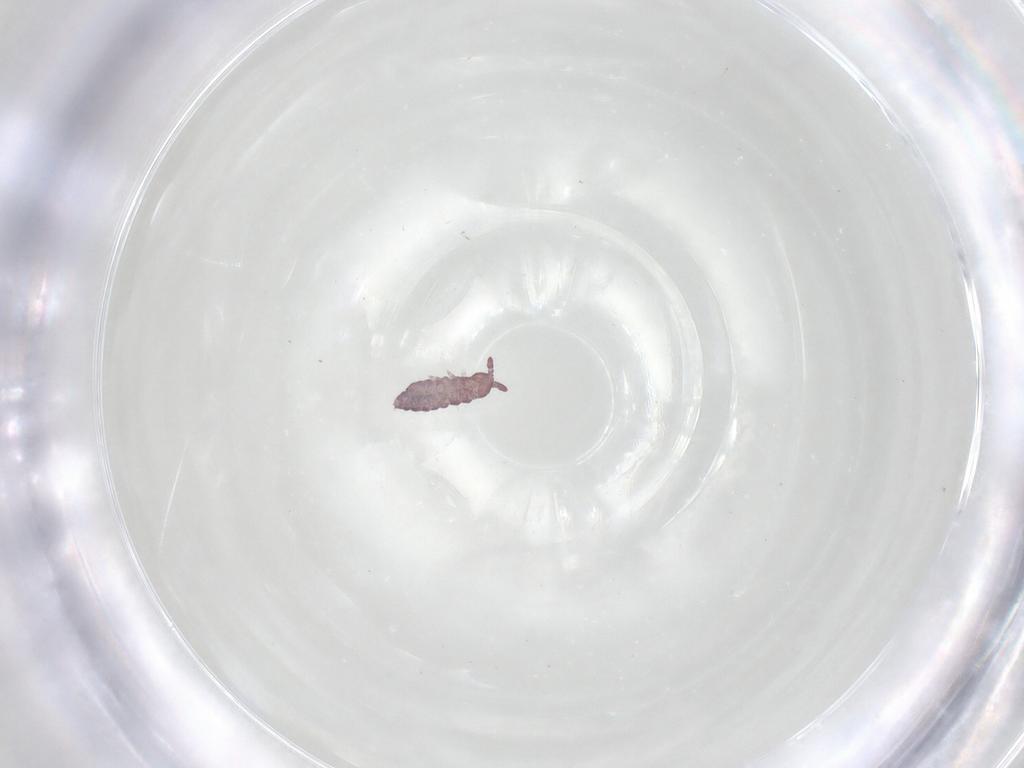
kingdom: Animalia
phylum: Arthropoda
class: Collembola
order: Poduromorpha
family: Hypogastruridae
